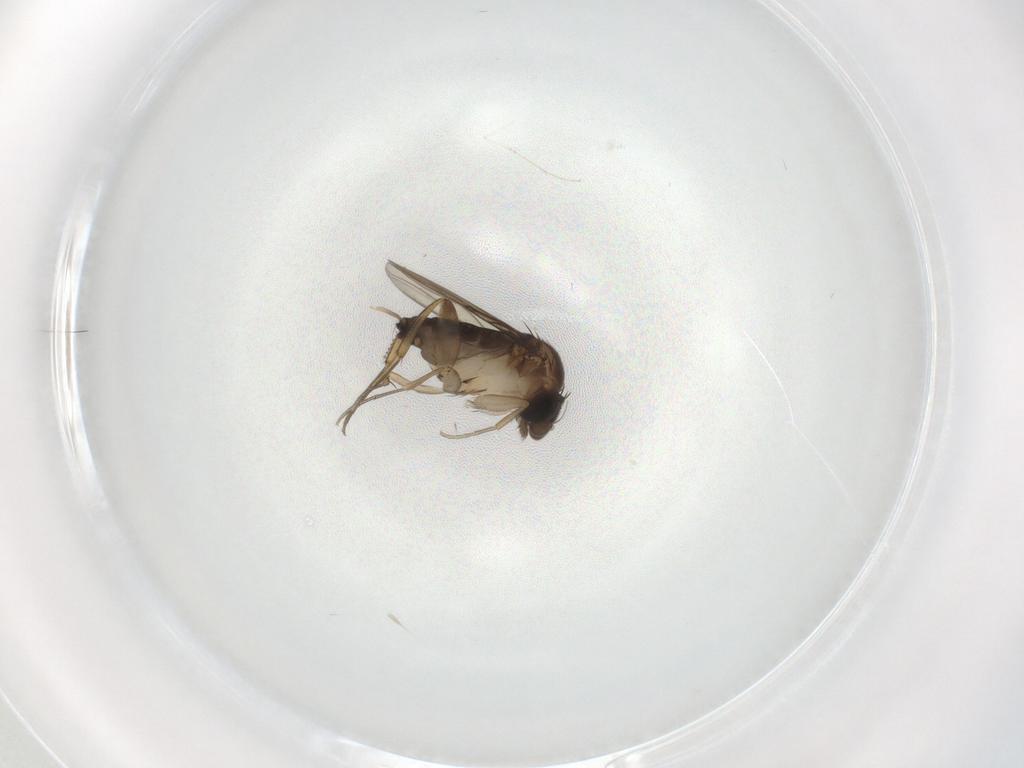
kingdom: Animalia
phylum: Arthropoda
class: Insecta
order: Diptera
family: Phoridae
